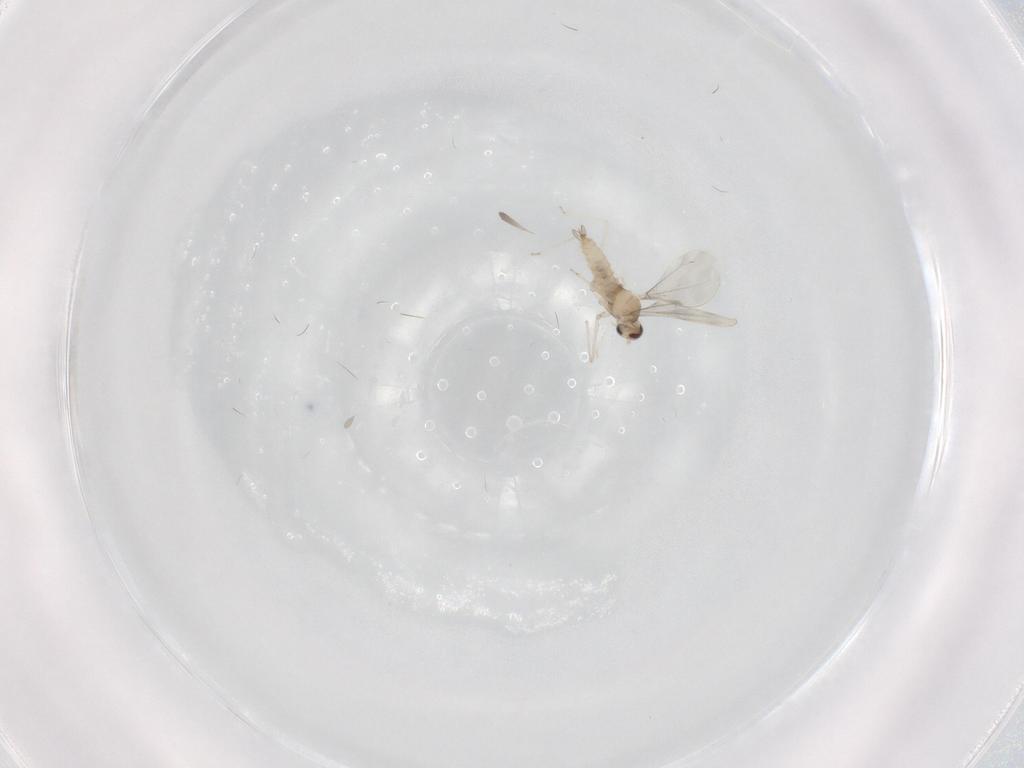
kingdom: Animalia
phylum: Arthropoda
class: Insecta
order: Diptera
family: Cecidomyiidae
